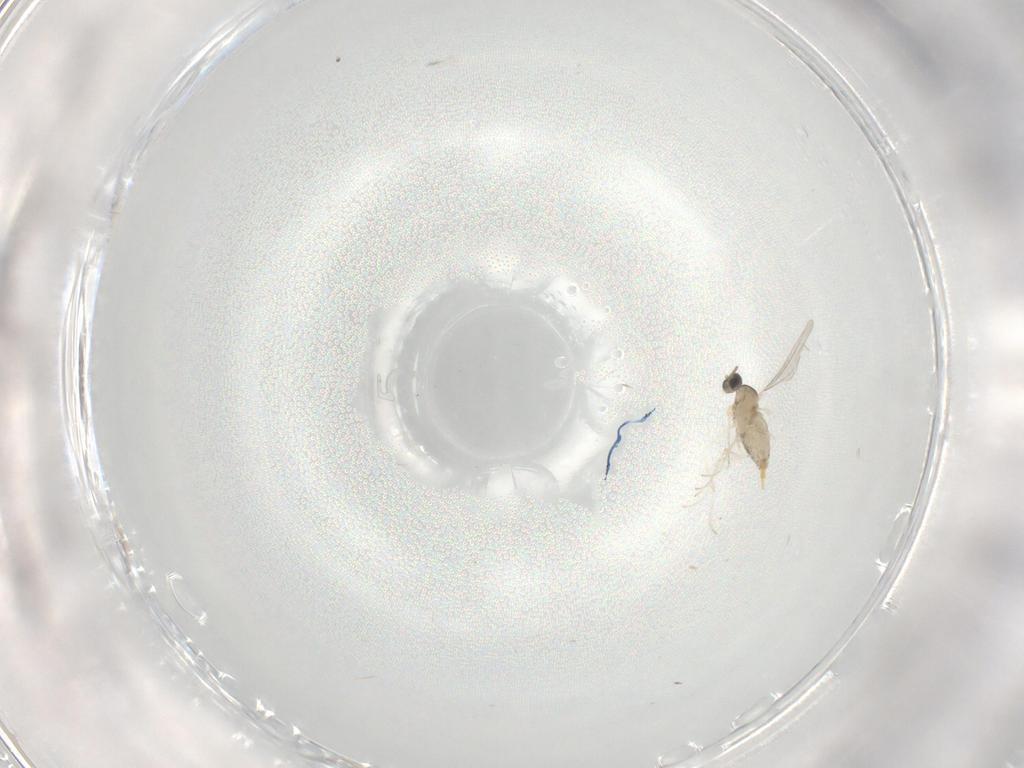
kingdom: Animalia
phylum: Arthropoda
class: Insecta
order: Diptera
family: Cecidomyiidae
